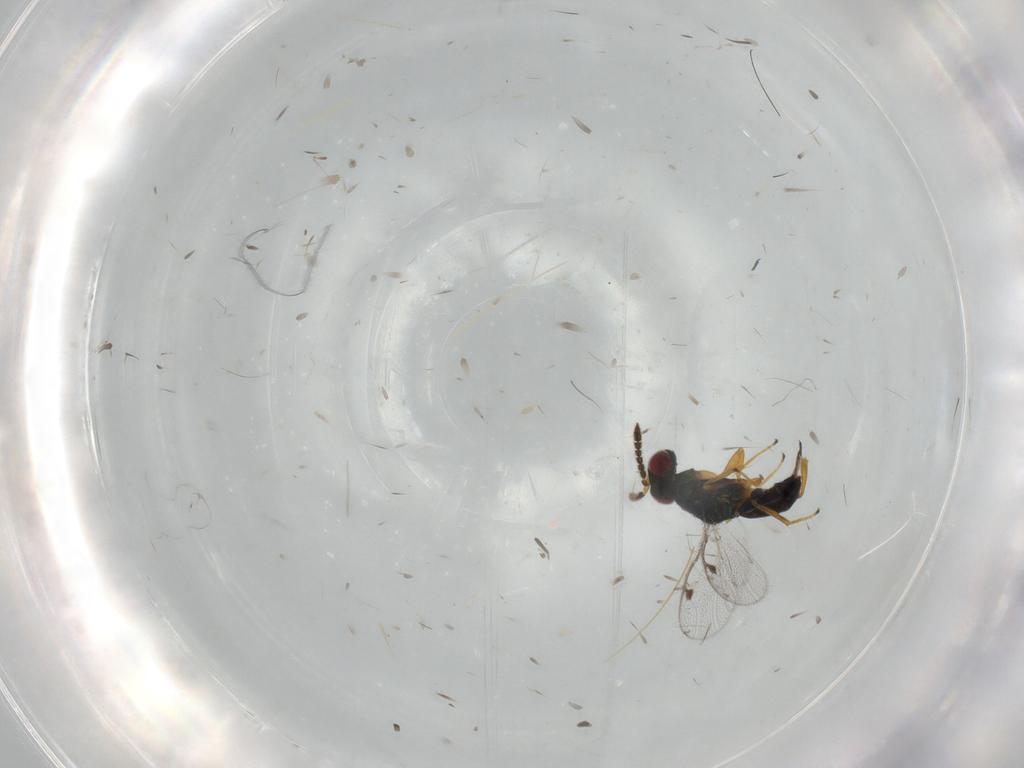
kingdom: Animalia
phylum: Arthropoda
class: Insecta
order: Hymenoptera
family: Pteromalidae
